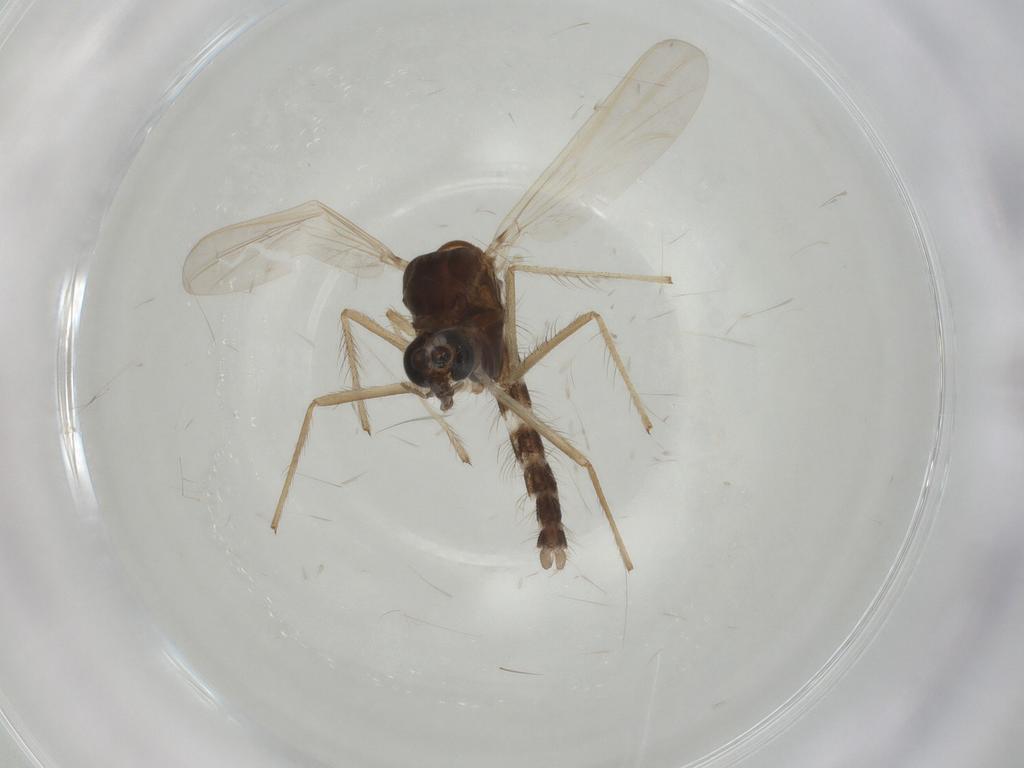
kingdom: Animalia
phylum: Arthropoda
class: Insecta
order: Diptera
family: Chironomidae
